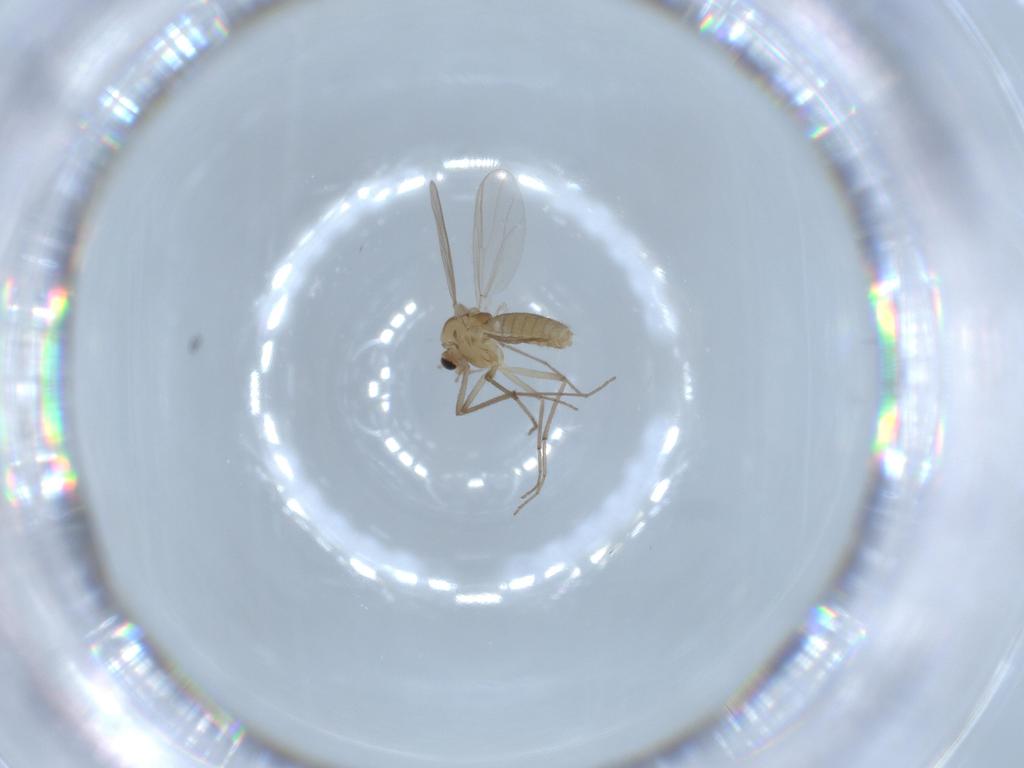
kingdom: Animalia
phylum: Arthropoda
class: Insecta
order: Diptera
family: Chironomidae
